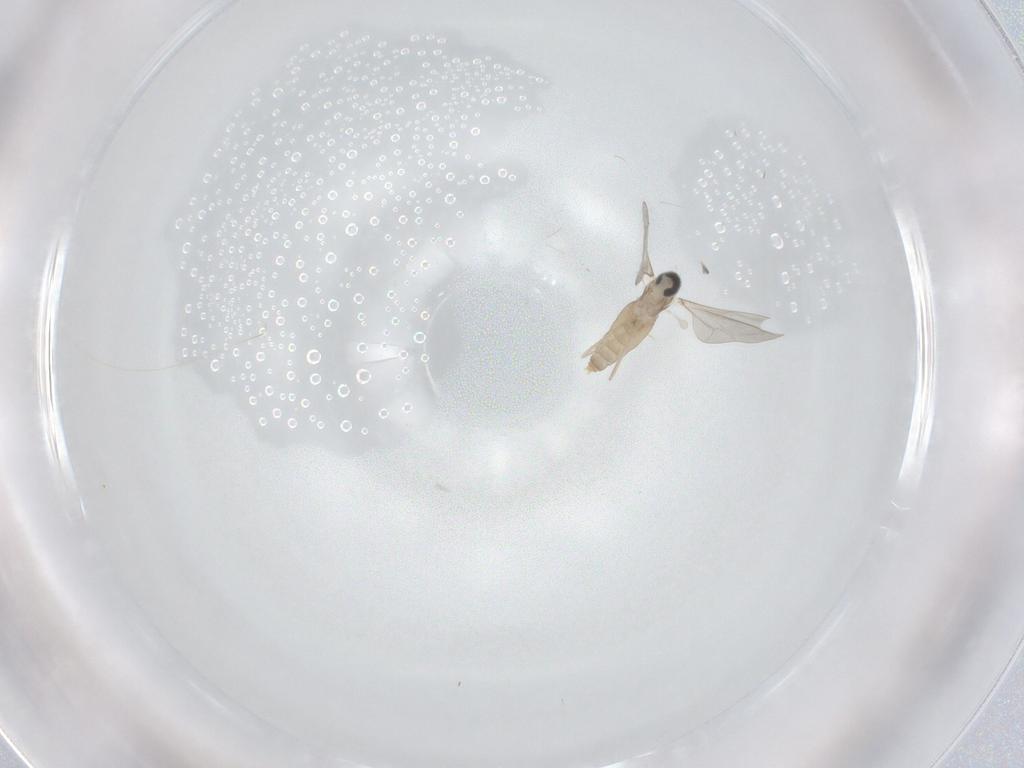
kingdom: Animalia
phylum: Arthropoda
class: Insecta
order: Diptera
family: Cecidomyiidae
